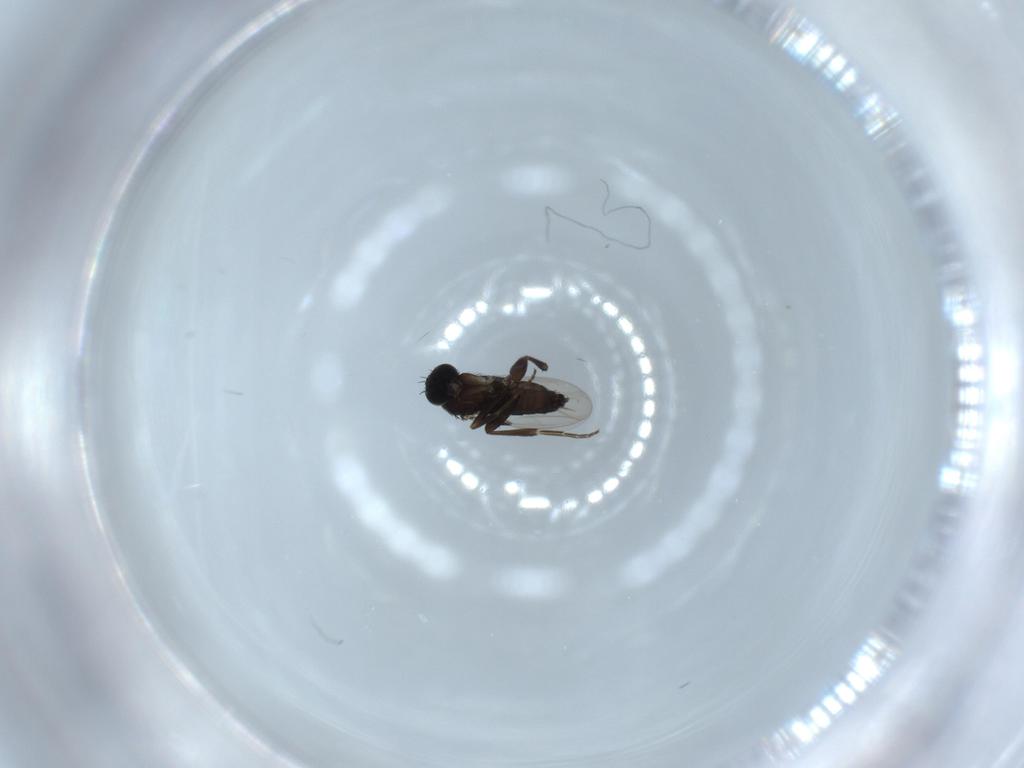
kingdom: Animalia
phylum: Arthropoda
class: Insecta
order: Diptera
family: Phoridae
